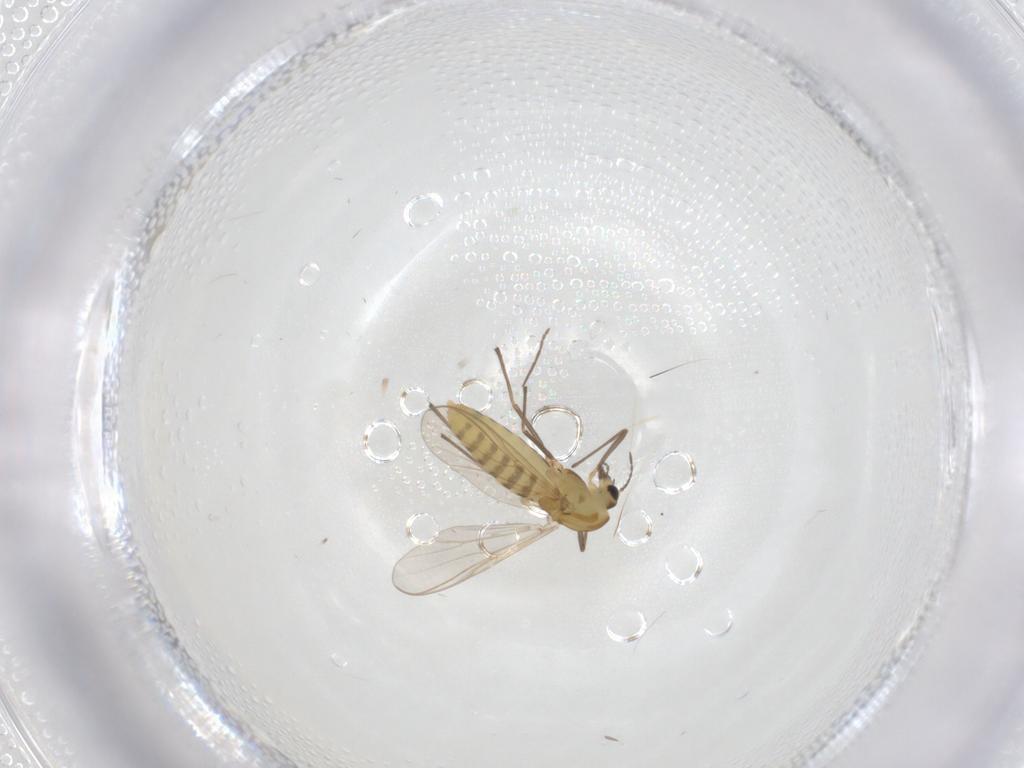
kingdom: Animalia
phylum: Arthropoda
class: Insecta
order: Diptera
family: Chironomidae
